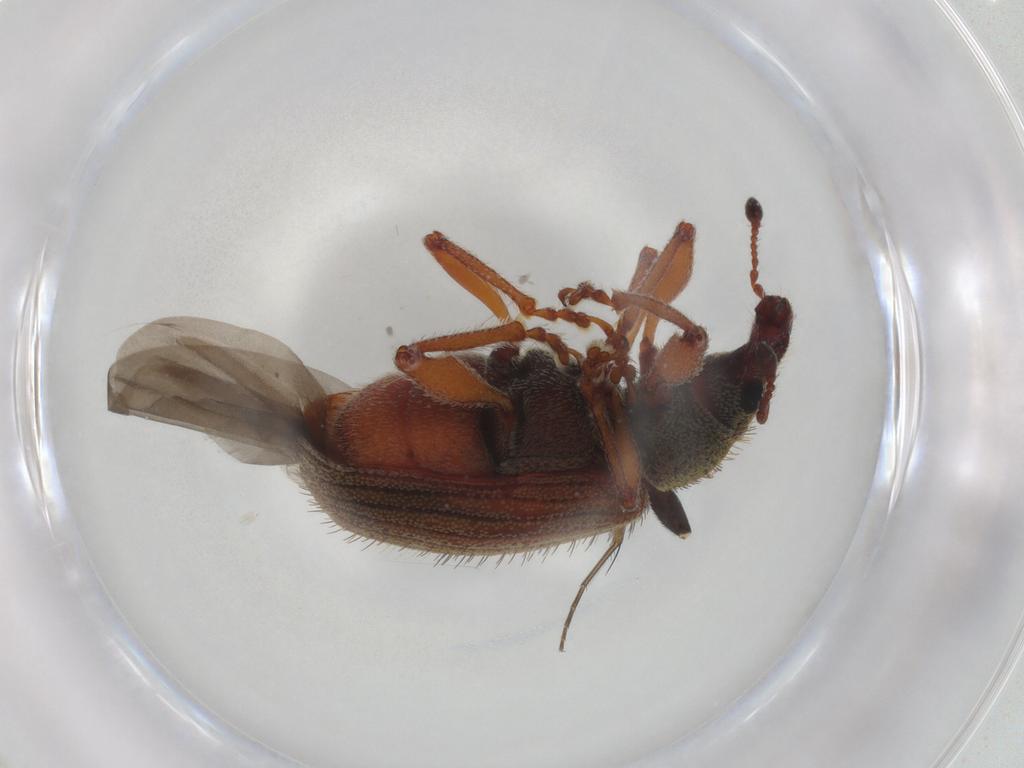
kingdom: Animalia
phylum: Arthropoda
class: Insecta
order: Coleoptera
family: Curculionidae
